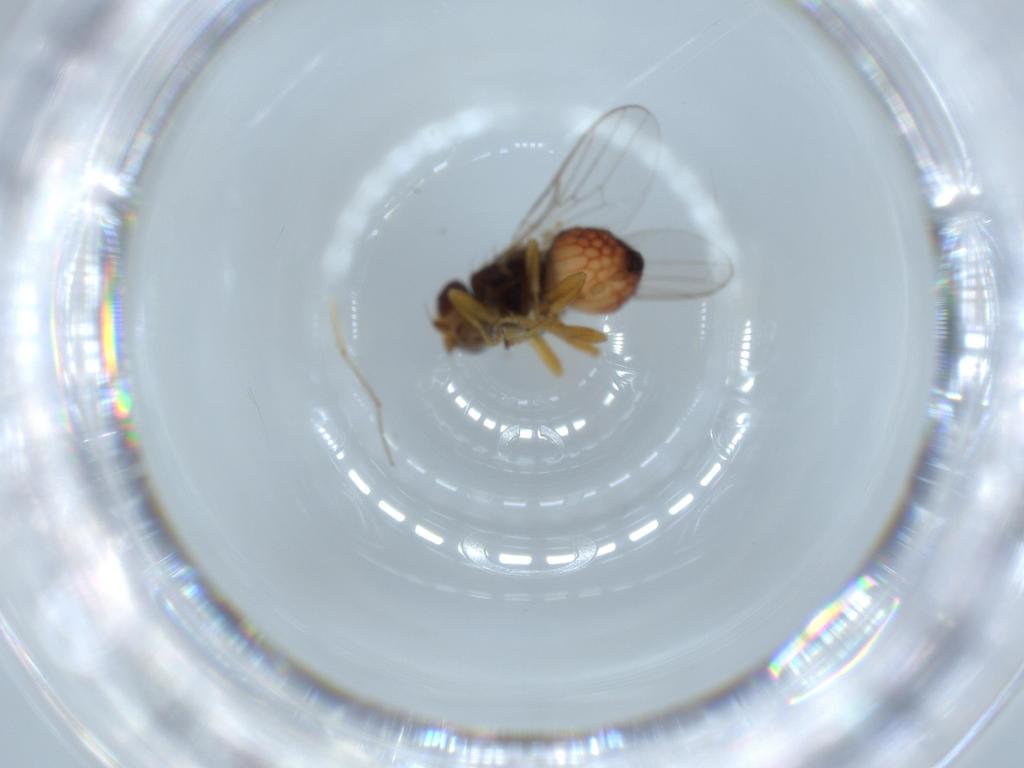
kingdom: Animalia
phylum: Arthropoda
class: Insecta
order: Diptera
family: Chloropidae
